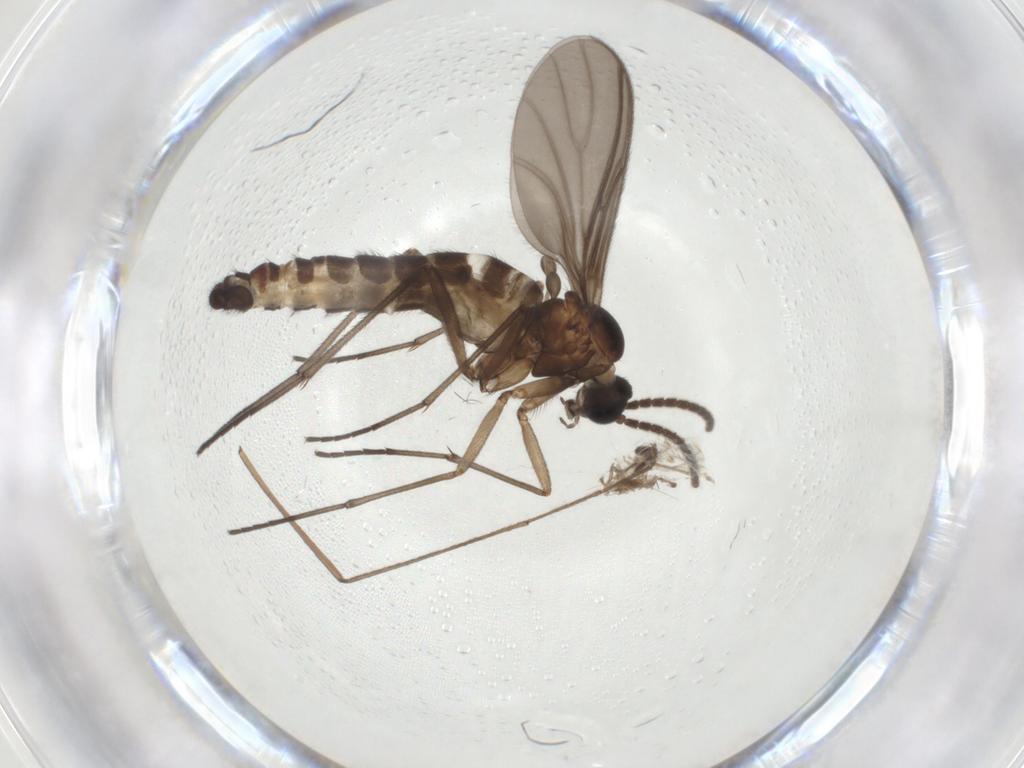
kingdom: Animalia
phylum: Arthropoda
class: Insecta
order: Diptera
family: Sciaridae
